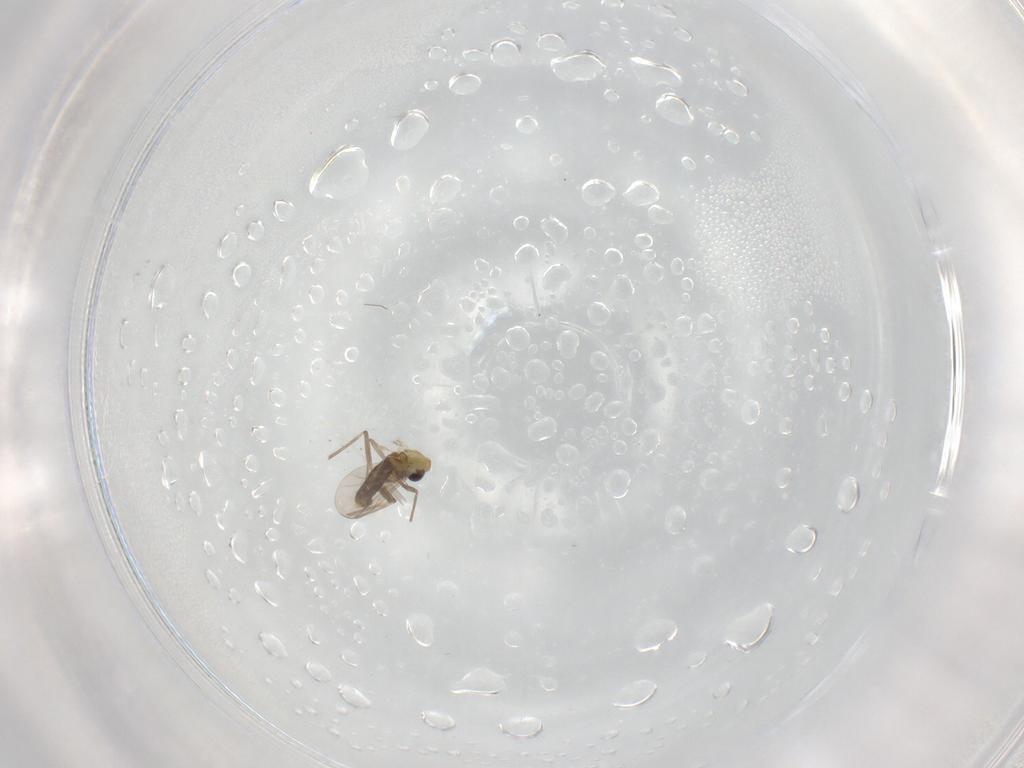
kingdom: Animalia
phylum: Arthropoda
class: Insecta
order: Diptera
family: Chironomidae
